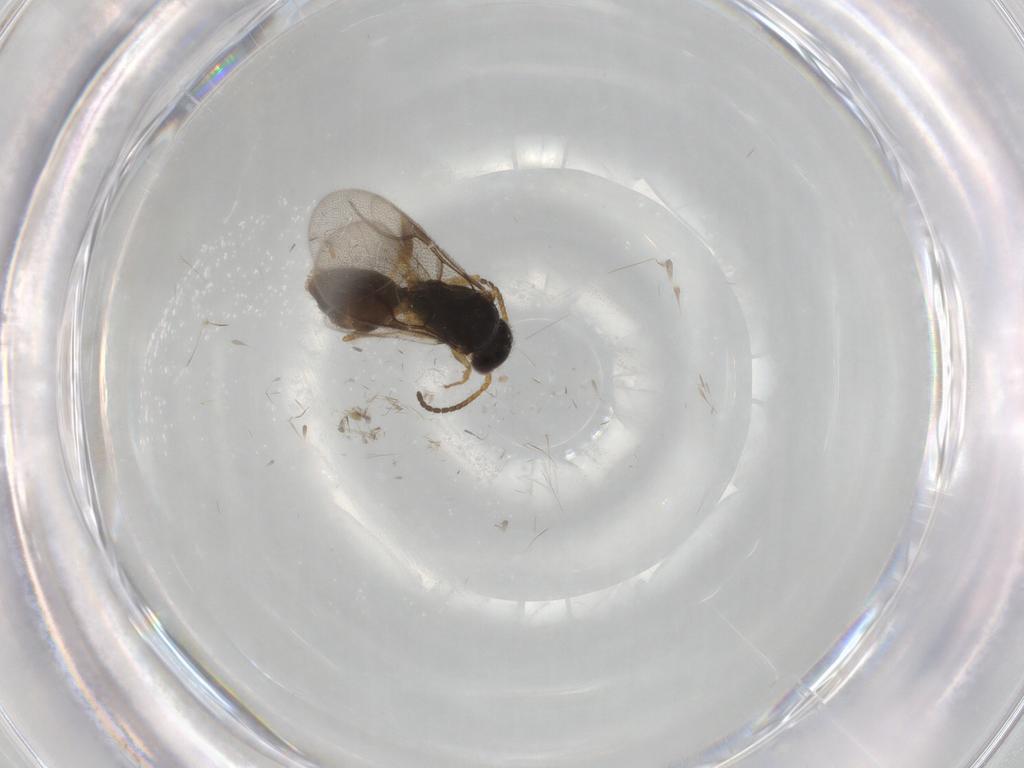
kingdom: Animalia
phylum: Arthropoda
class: Insecta
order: Hymenoptera
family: Bethylidae
